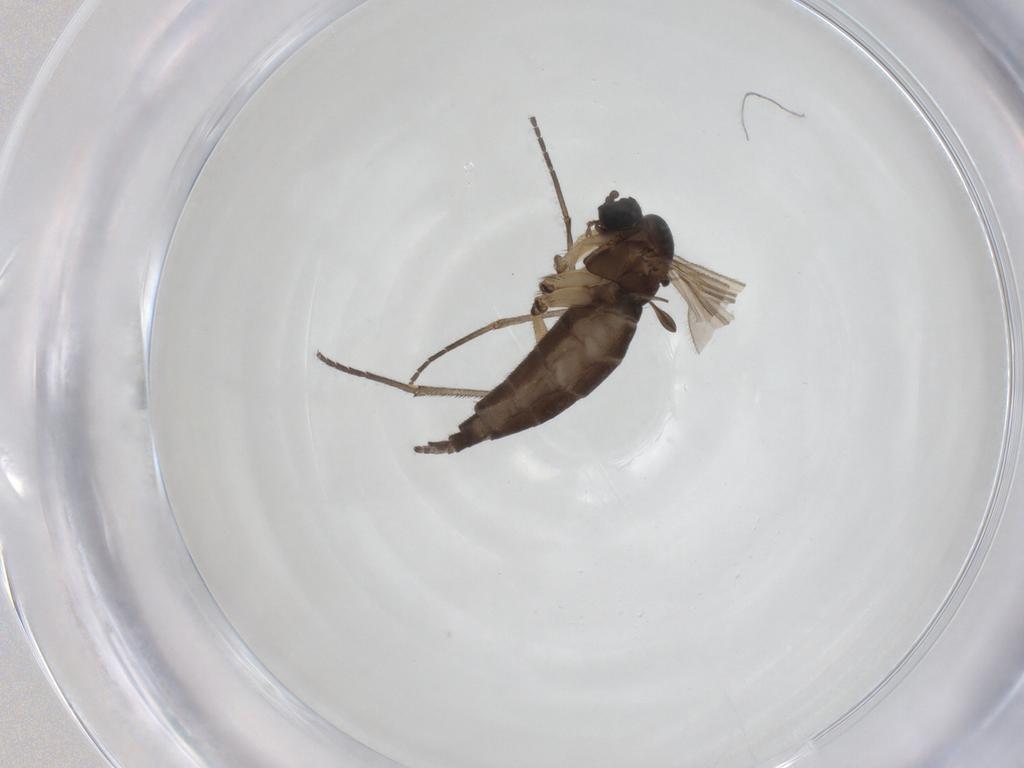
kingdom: Animalia
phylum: Arthropoda
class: Insecta
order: Diptera
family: Sciaridae
